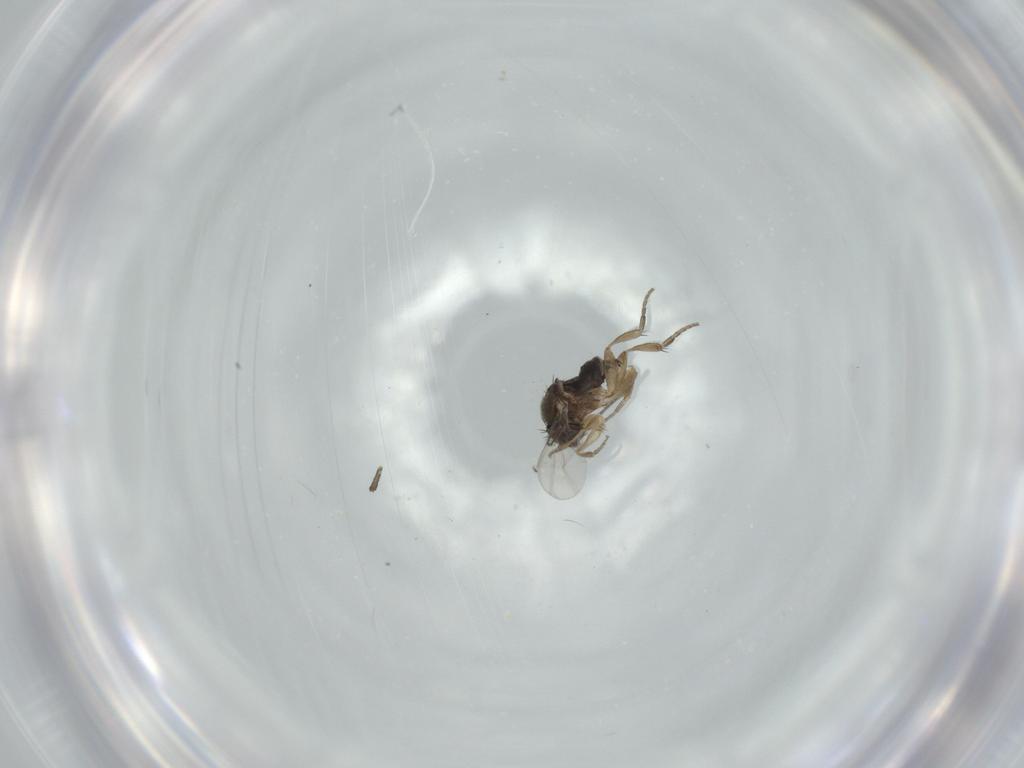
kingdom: Animalia
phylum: Arthropoda
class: Insecta
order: Diptera
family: Phoridae
